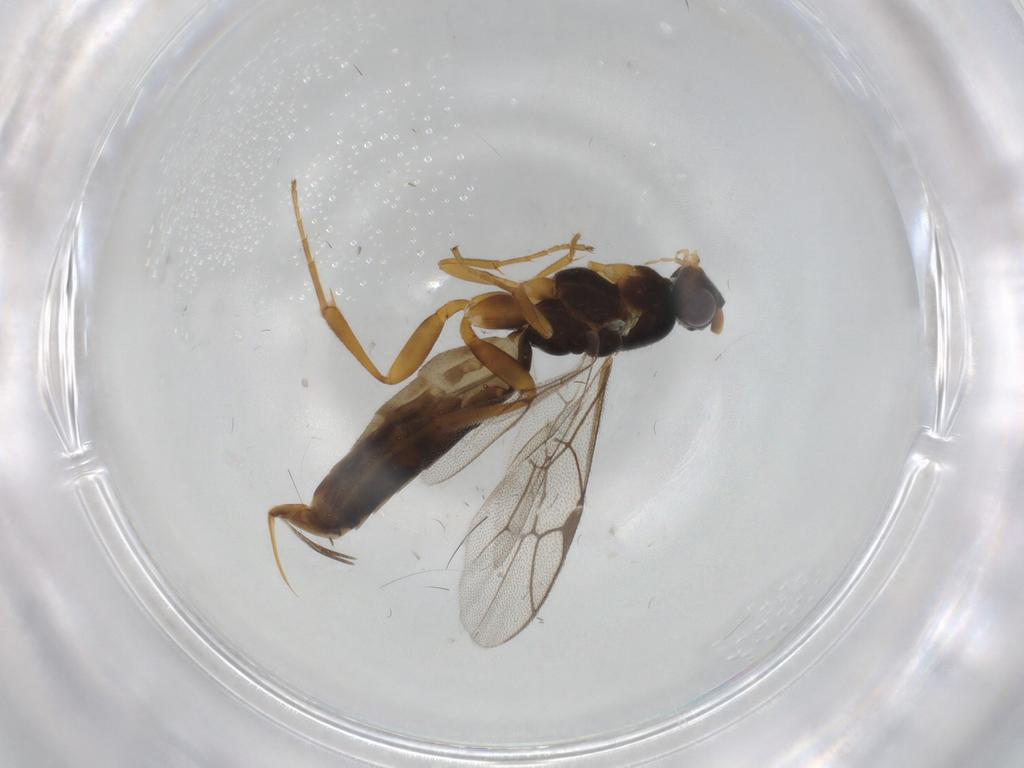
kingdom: Animalia
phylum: Arthropoda
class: Insecta
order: Hymenoptera
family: Ichneumonidae
